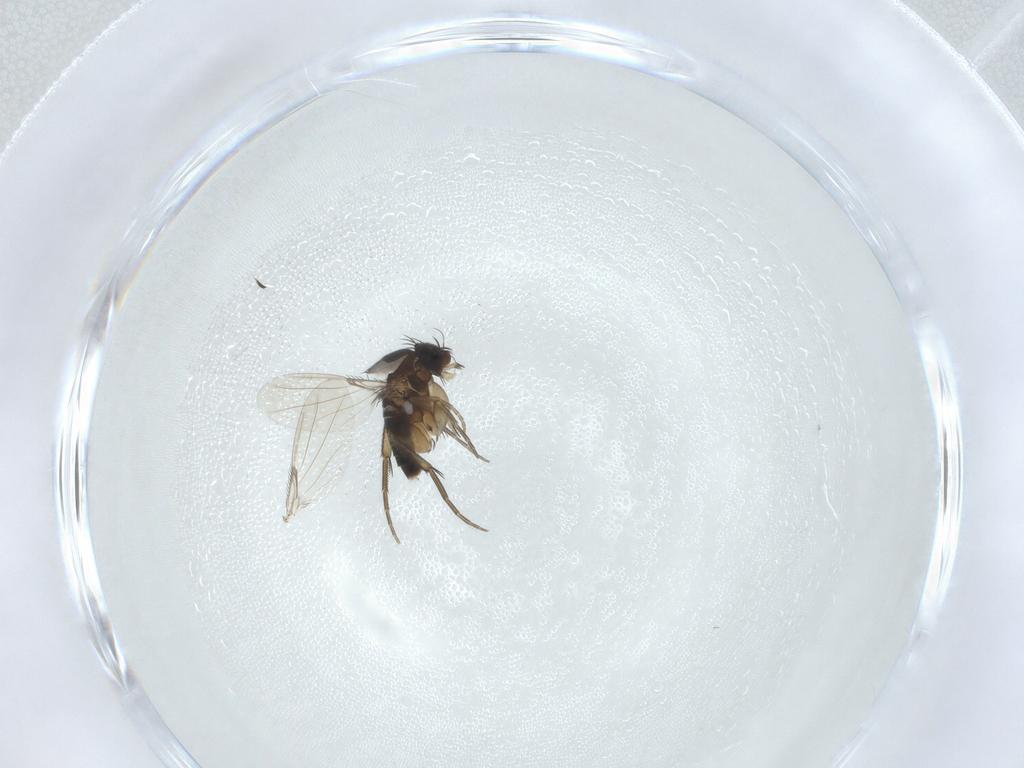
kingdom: Animalia
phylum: Arthropoda
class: Insecta
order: Diptera
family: Phoridae
